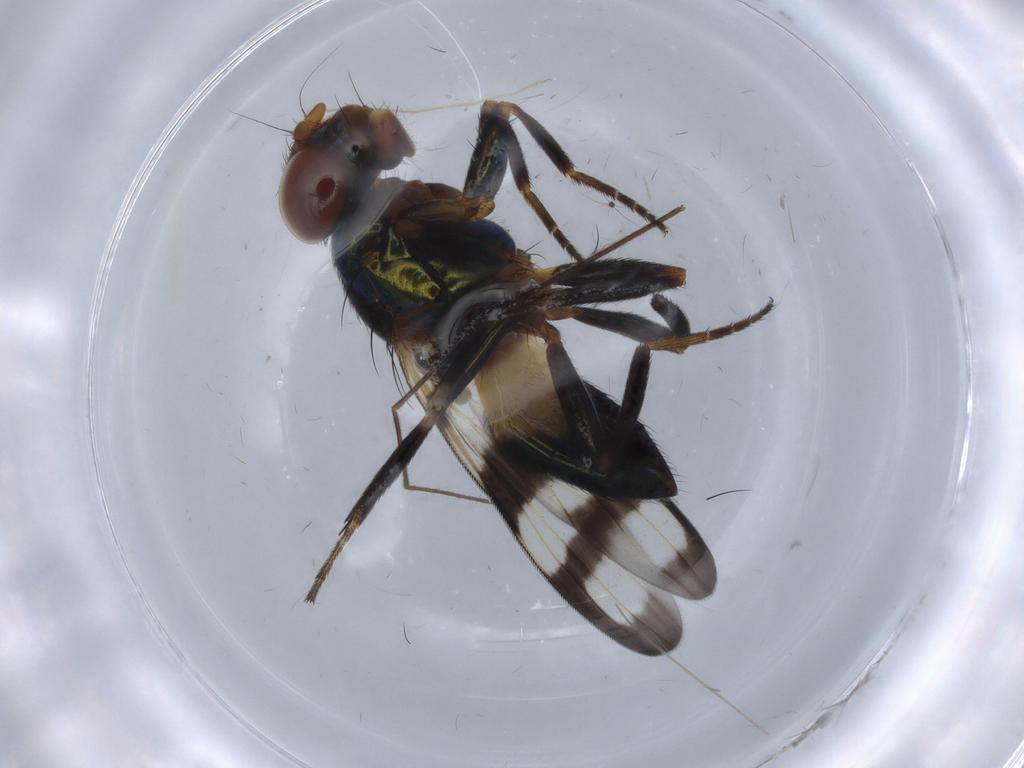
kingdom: Animalia
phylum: Arthropoda
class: Insecta
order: Diptera
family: Ulidiidae
